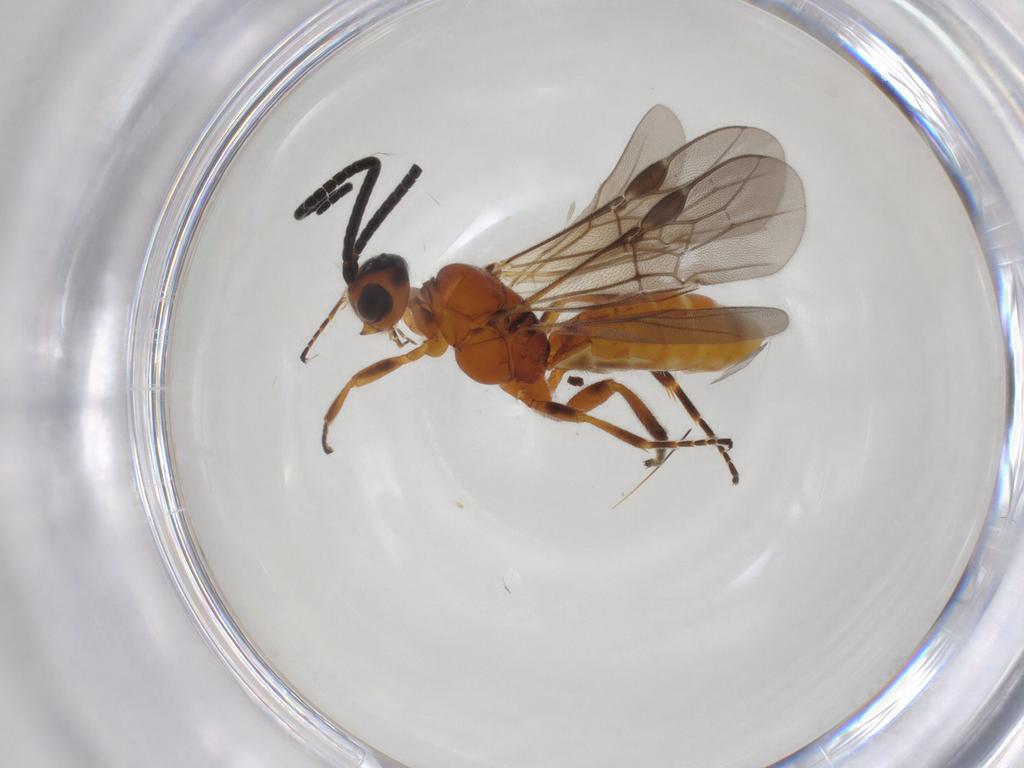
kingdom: Animalia
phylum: Arthropoda
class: Insecta
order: Hymenoptera
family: Braconidae
